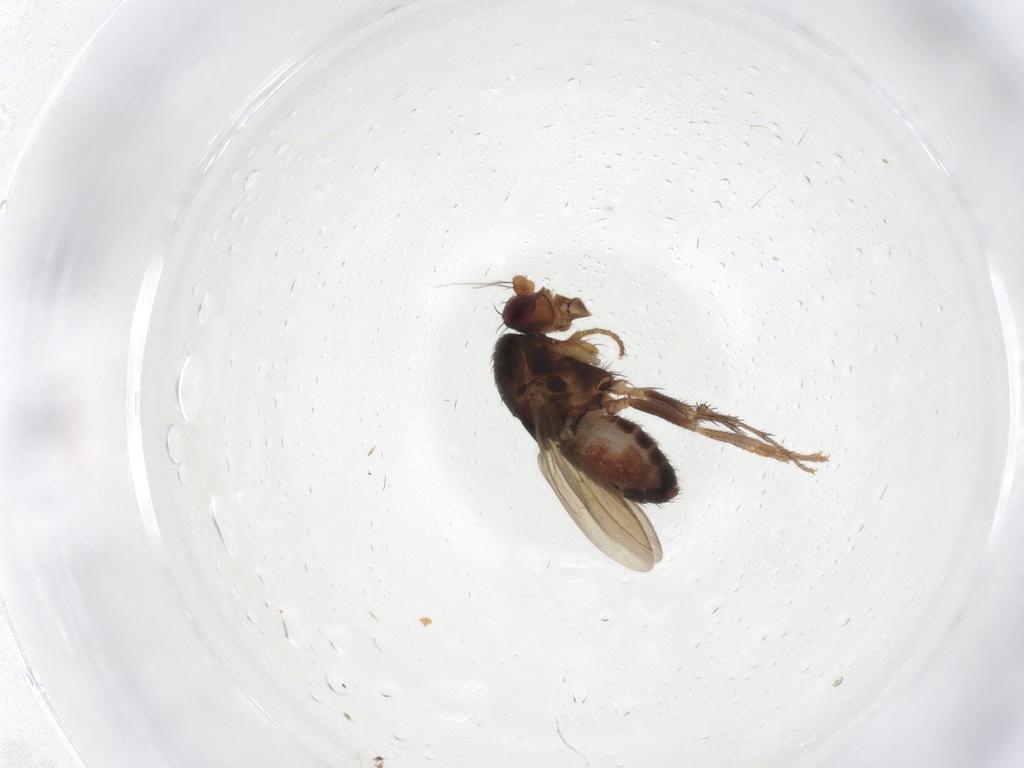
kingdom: Animalia
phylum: Arthropoda
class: Insecta
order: Diptera
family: Sphaeroceridae
